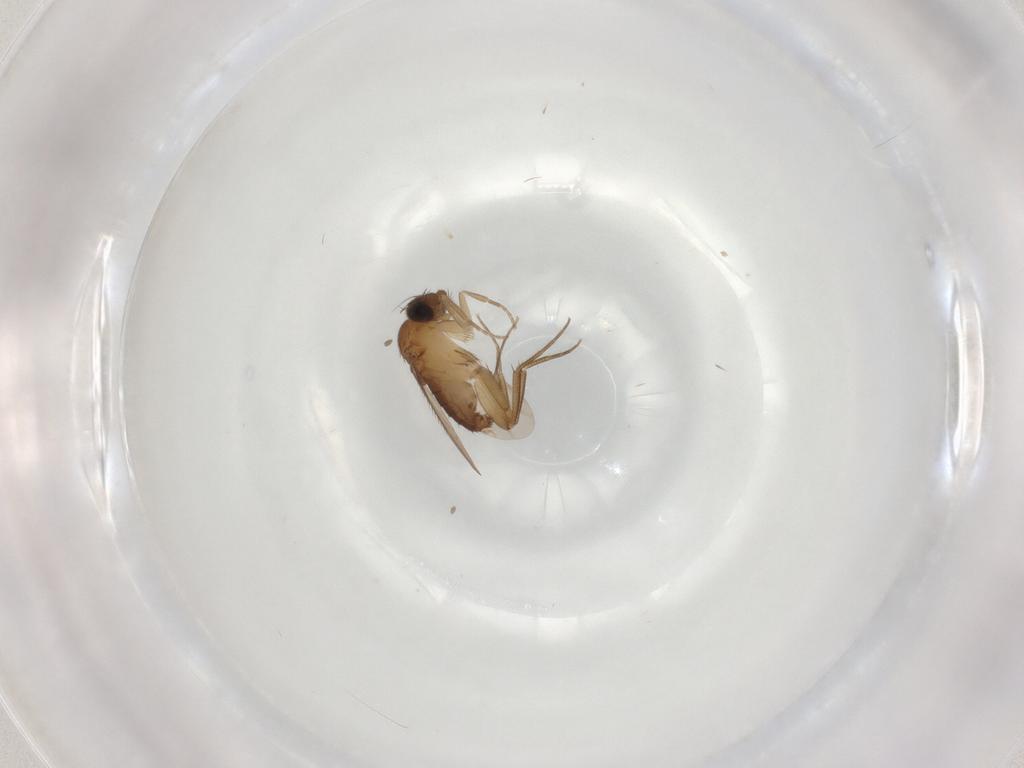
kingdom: Animalia
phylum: Arthropoda
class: Insecta
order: Diptera
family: Phoridae
